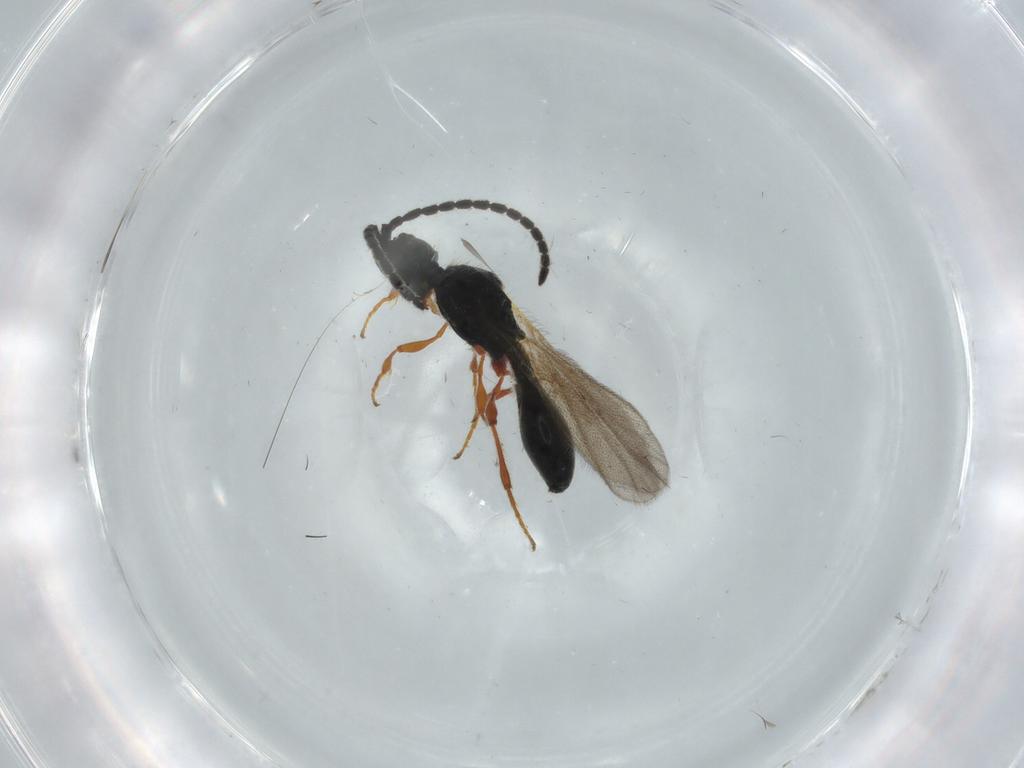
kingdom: Animalia
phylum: Arthropoda
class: Insecta
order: Hymenoptera
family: Diapriidae
